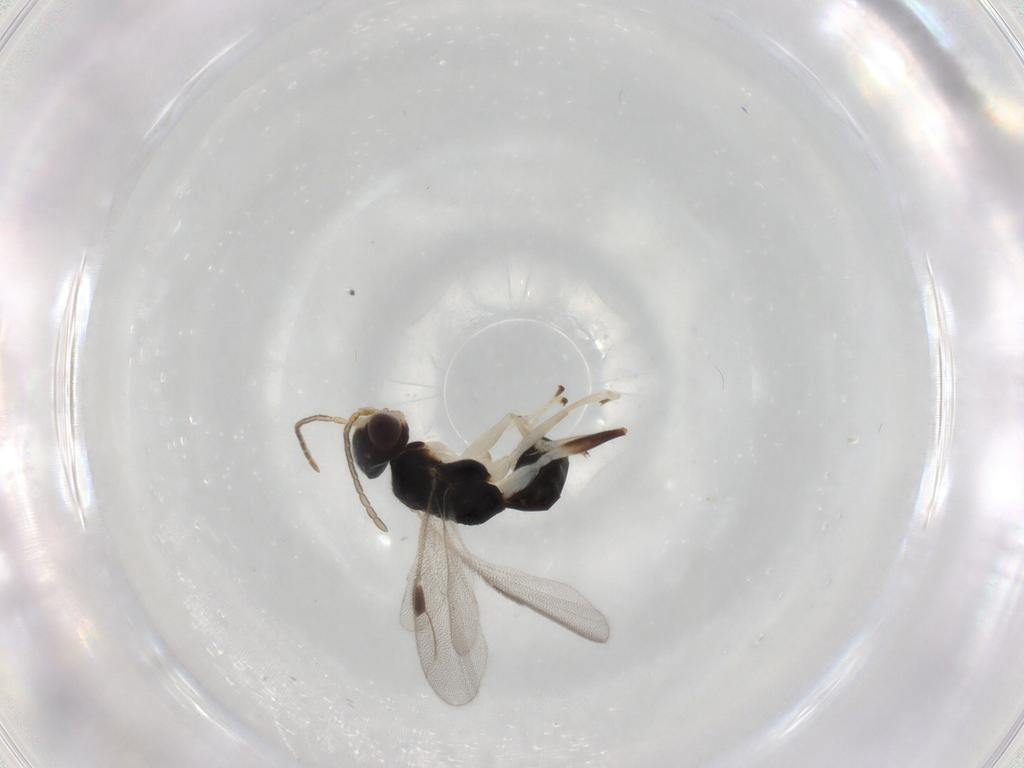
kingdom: Animalia
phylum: Arthropoda
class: Insecta
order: Hymenoptera
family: Dryinidae
